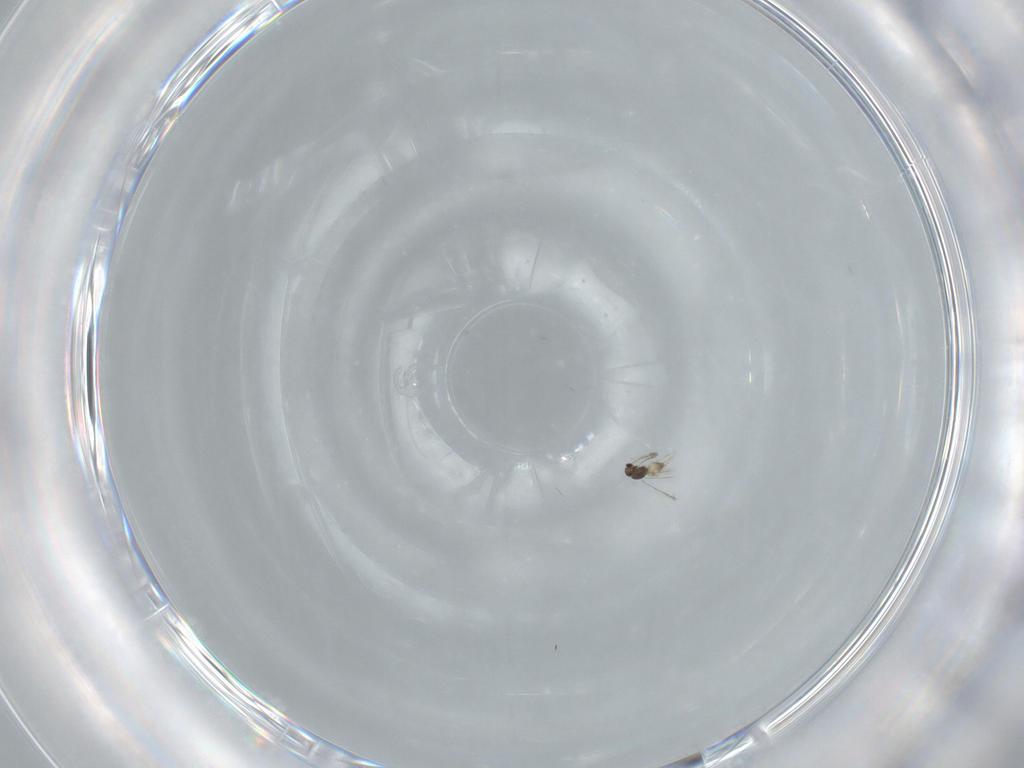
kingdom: Animalia
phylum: Arthropoda
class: Insecta
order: Hymenoptera
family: Mymaridae
